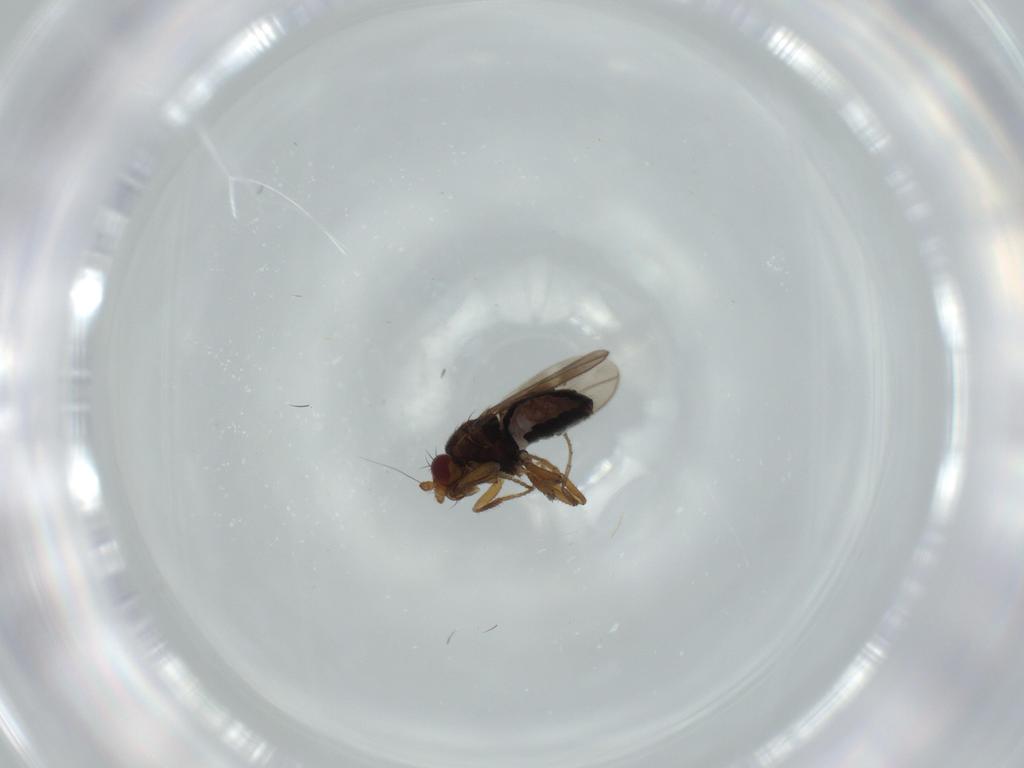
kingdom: Animalia
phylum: Arthropoda
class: Insecta
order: Diptera
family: Sphaeroceridae
